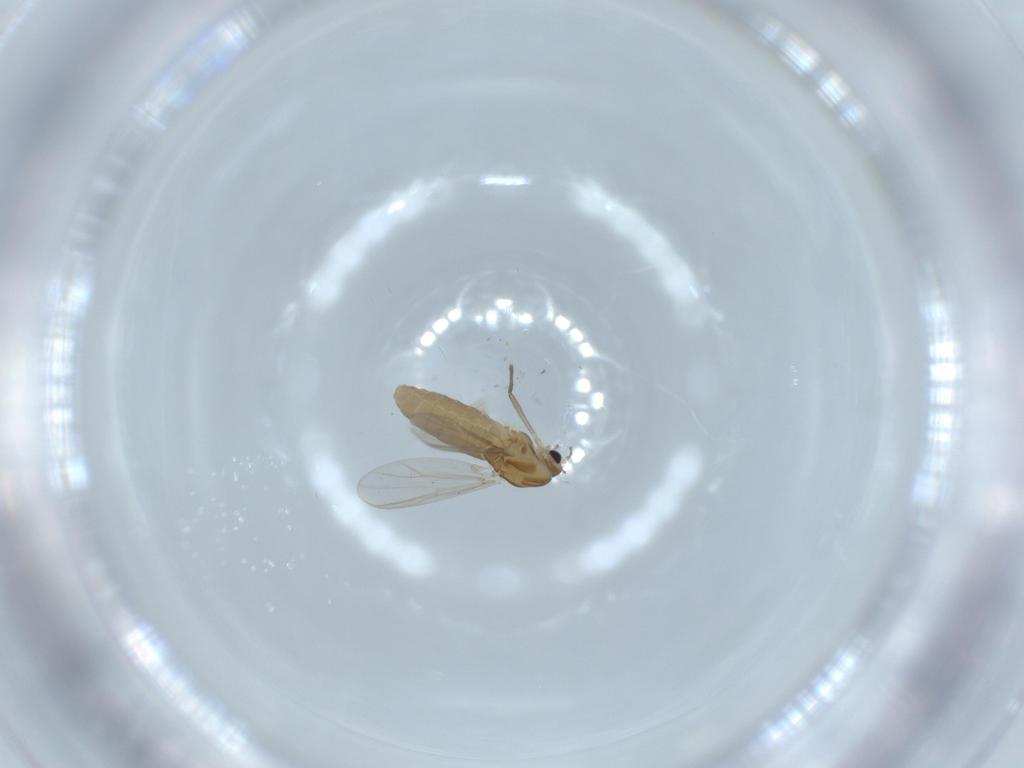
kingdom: Animalia
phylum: Arthropoda
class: Insecta
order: Diptera
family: Chironomidae
